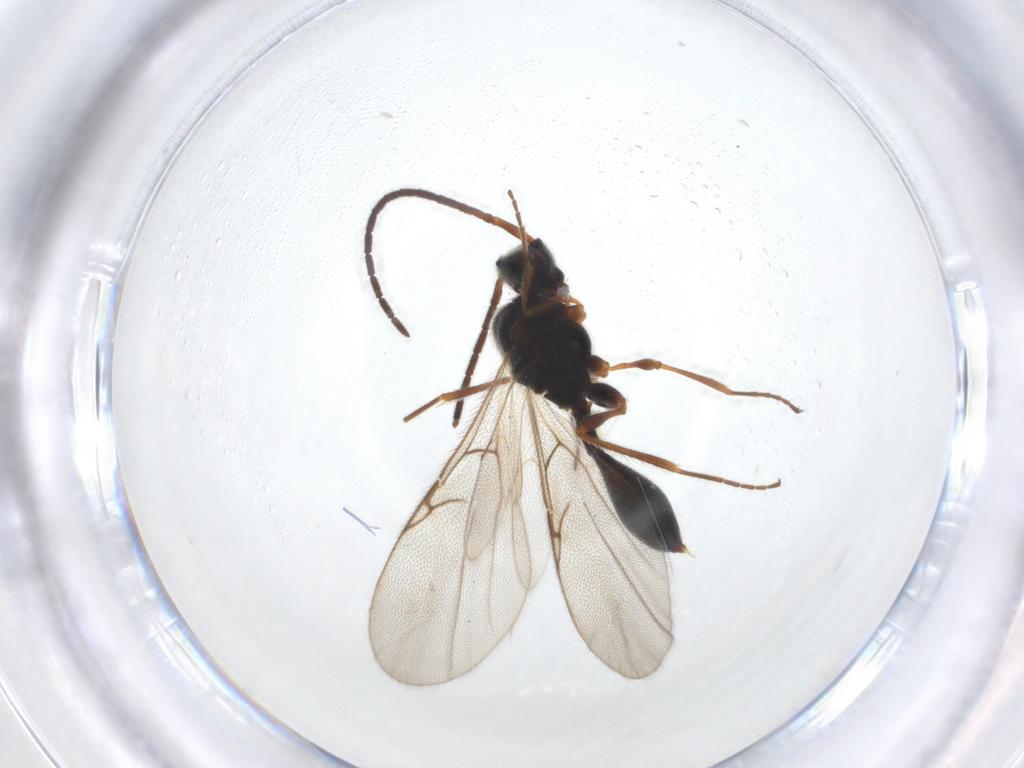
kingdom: Animalia
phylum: Arthropoda
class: Insecta
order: Hymenoptera
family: Diapriidae
